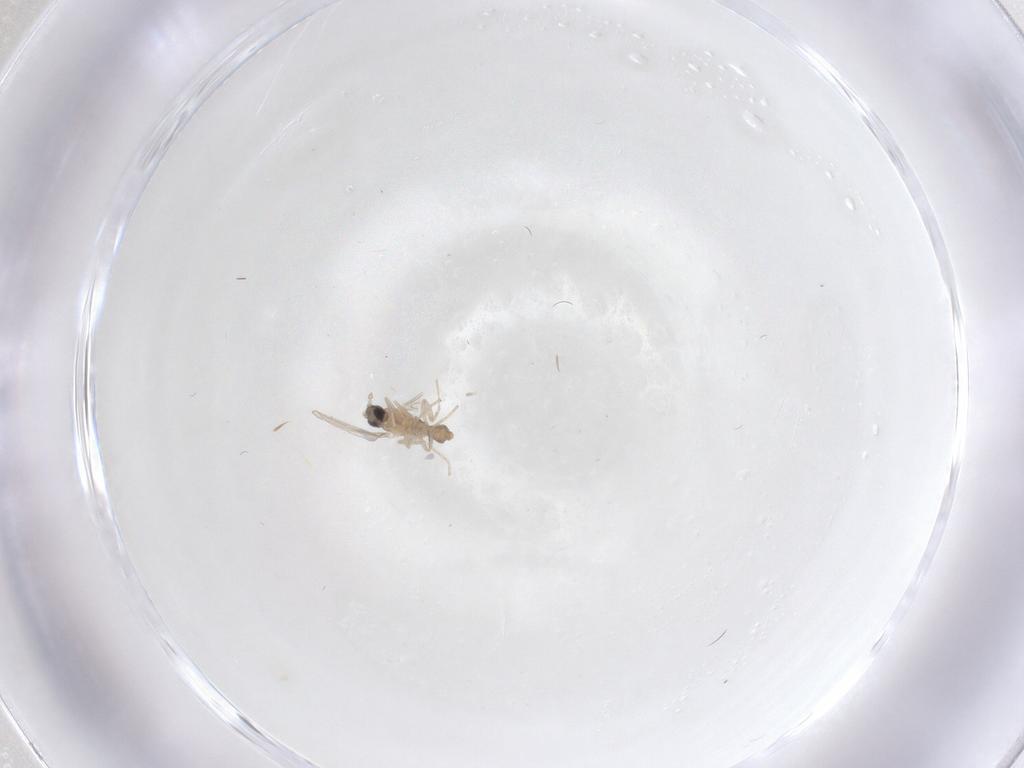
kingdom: Animalia
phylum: Arthropoda
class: Insecta
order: Diptera
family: Cecidomyiidae
